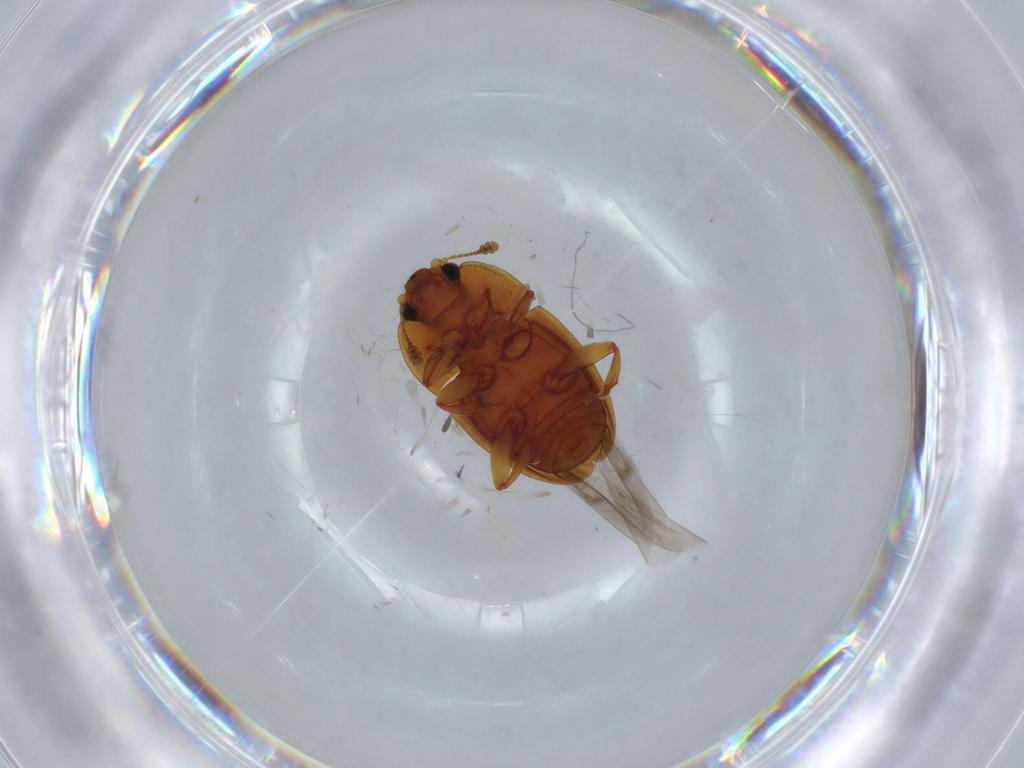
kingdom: Animalia
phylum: Arthropoda
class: Insecta
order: Coleoptera
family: Nitidulidae
